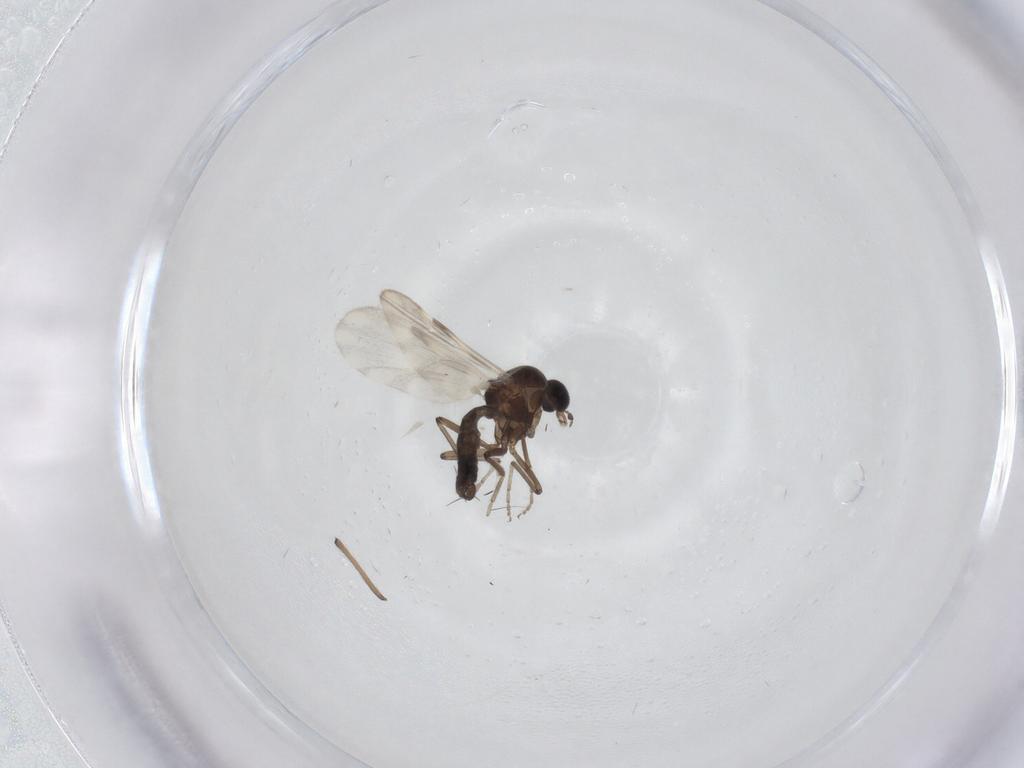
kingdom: Animalia
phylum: Arthropoda
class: Insecta
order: Diptera
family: Ceratopogonidae
